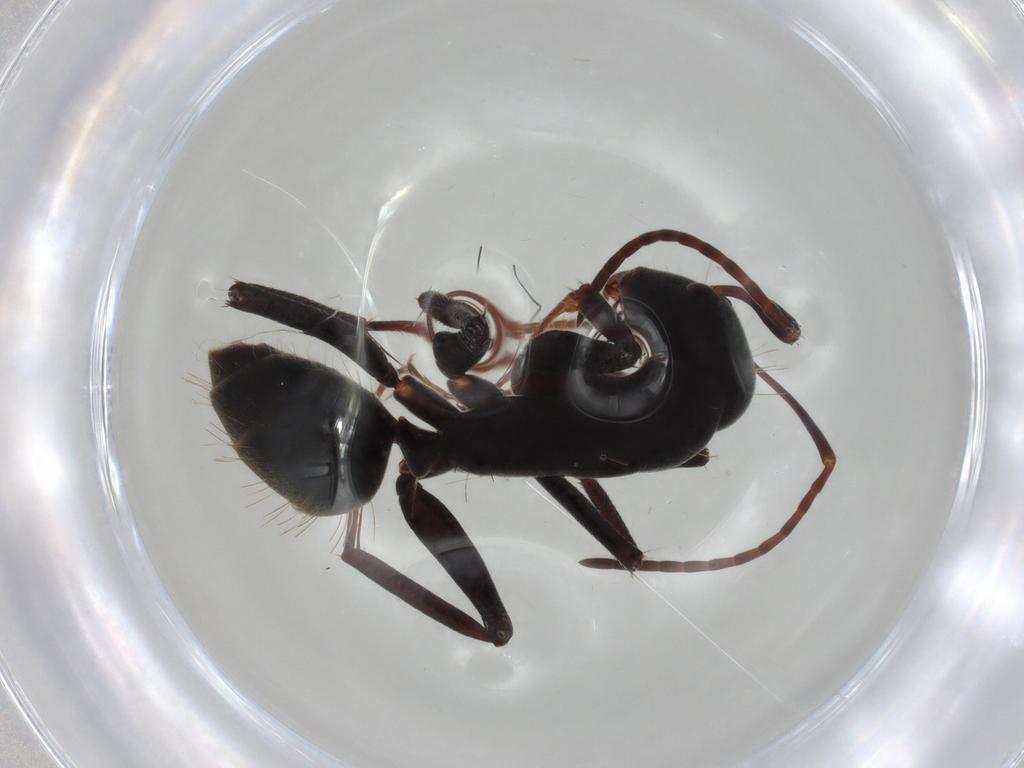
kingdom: Animalia
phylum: Arthropoda
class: Insecta
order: Hymenoptera
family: Formicidae
